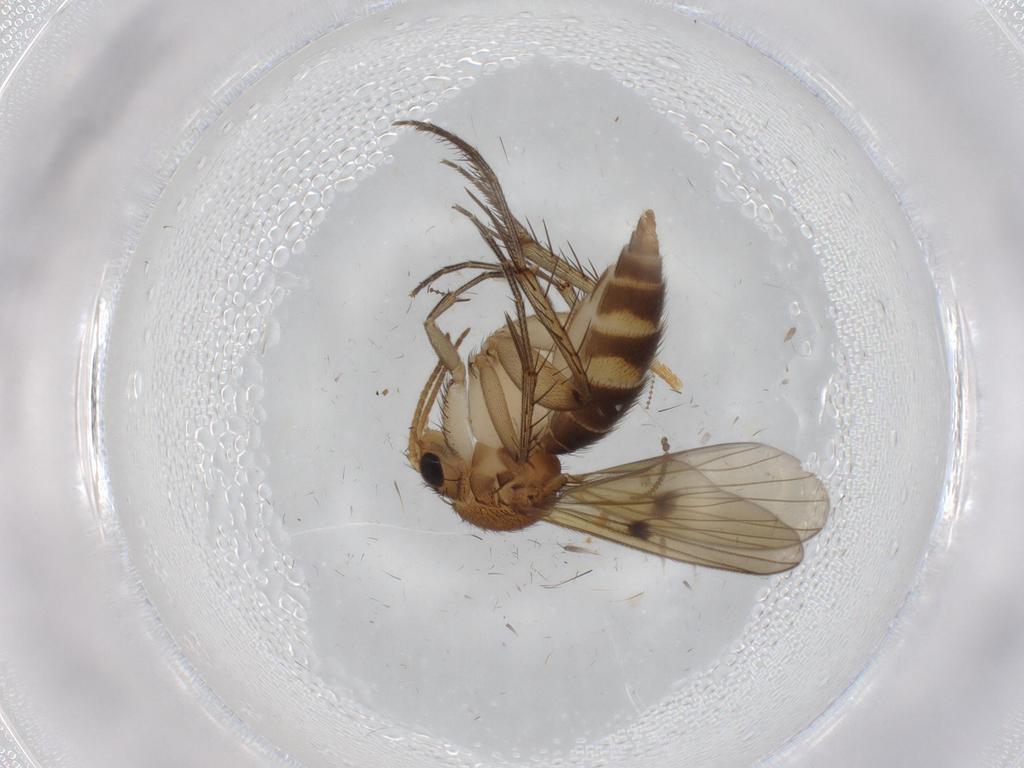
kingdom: Animalia
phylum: Arthropoda
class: Insecta
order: Diptera
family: Mycetophilidae
